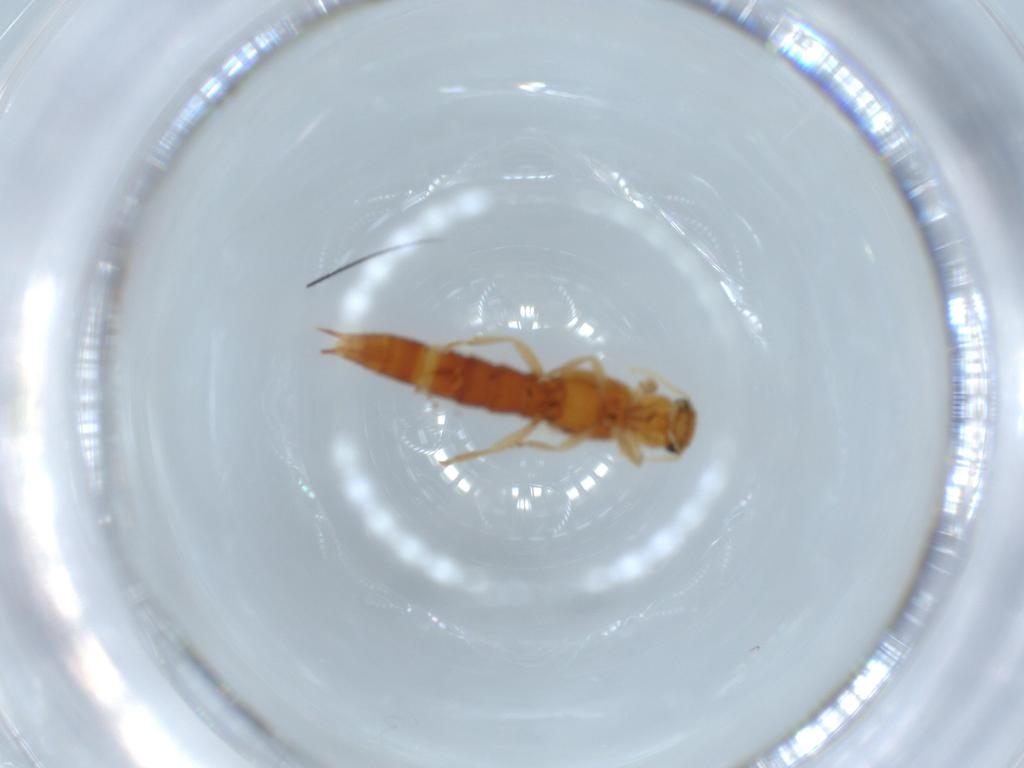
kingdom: Animalia
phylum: Arthropoda
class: Insecta
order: Coleoptera
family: Staphylinidae
